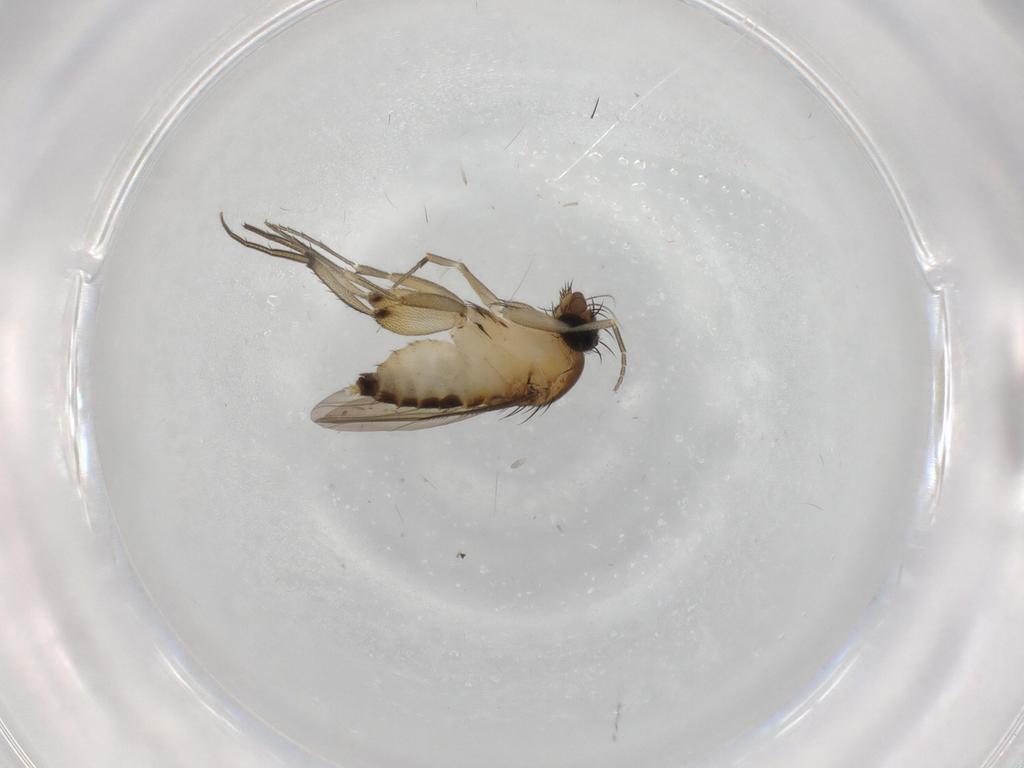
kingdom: Animalia
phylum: Arthropoda
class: Insecta
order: Diptera
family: Phoridae
